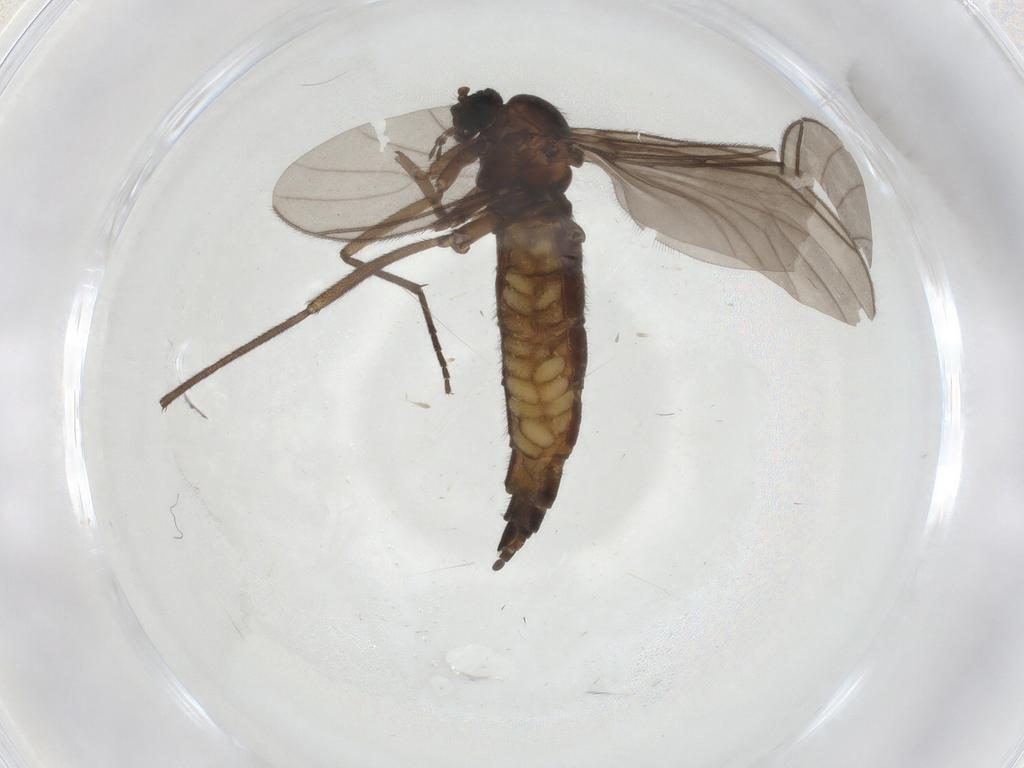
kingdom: Animalia
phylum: Arthropoda
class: Insecta
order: Diptera
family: Sciaridae
